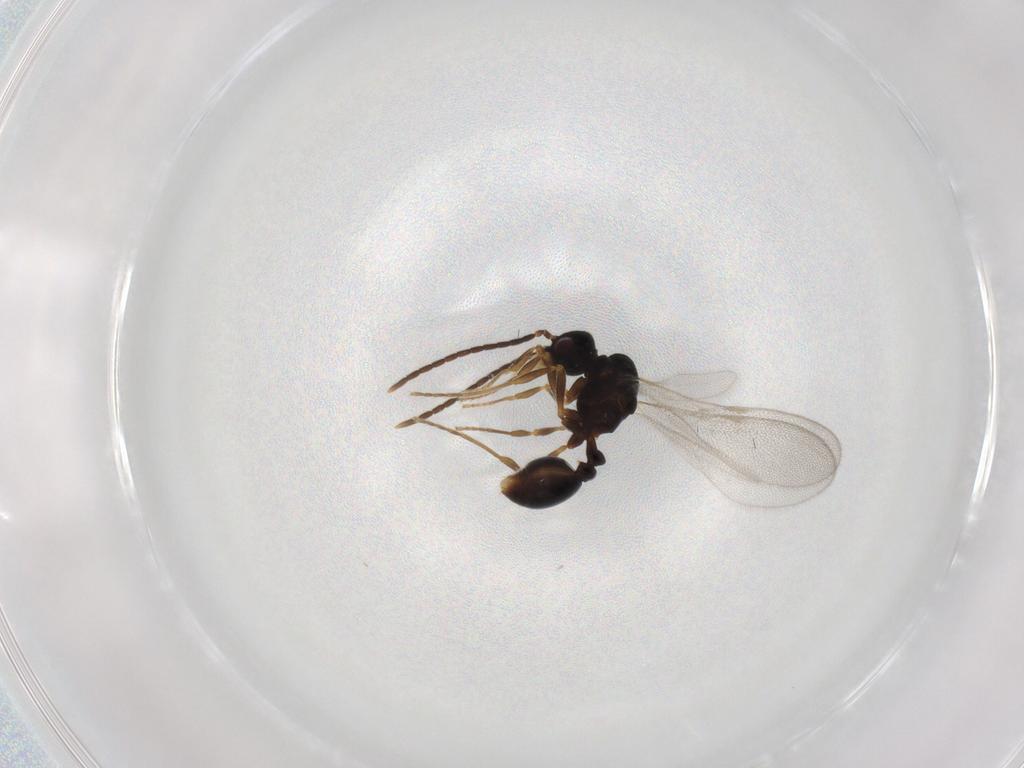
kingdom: Animalia
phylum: Arthropoda
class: Insecta
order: Hymenoptera
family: Formicidae
